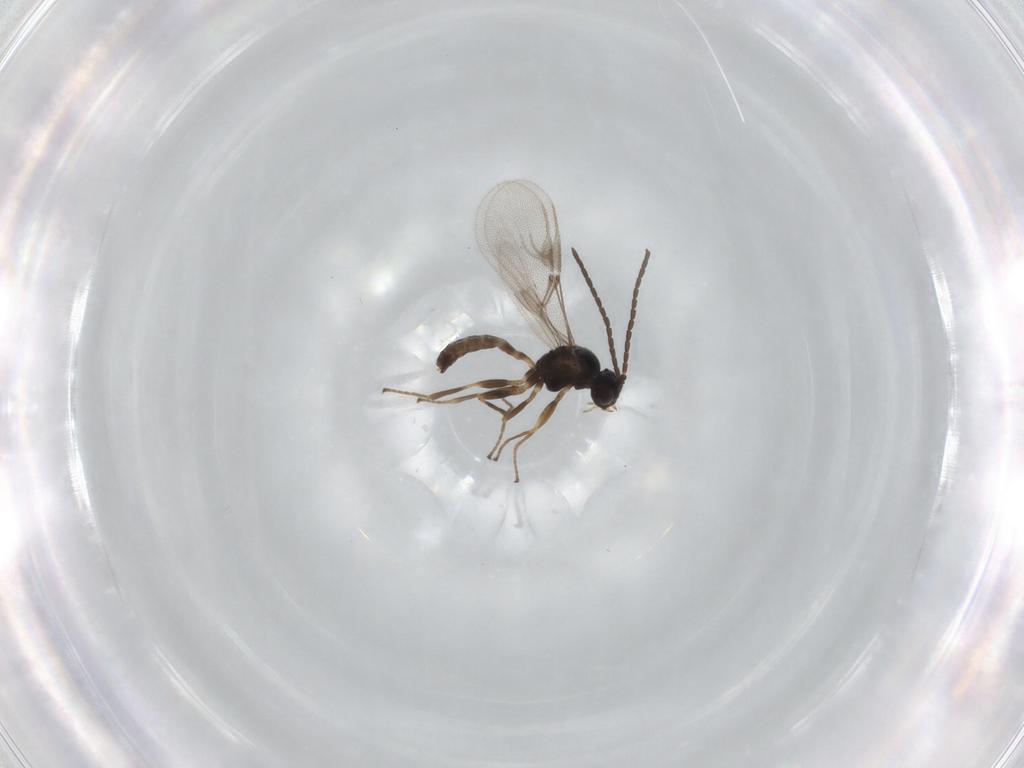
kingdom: Animalia
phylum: Arthropoda
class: Insecta
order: Hymenoptera
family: Braconidae
